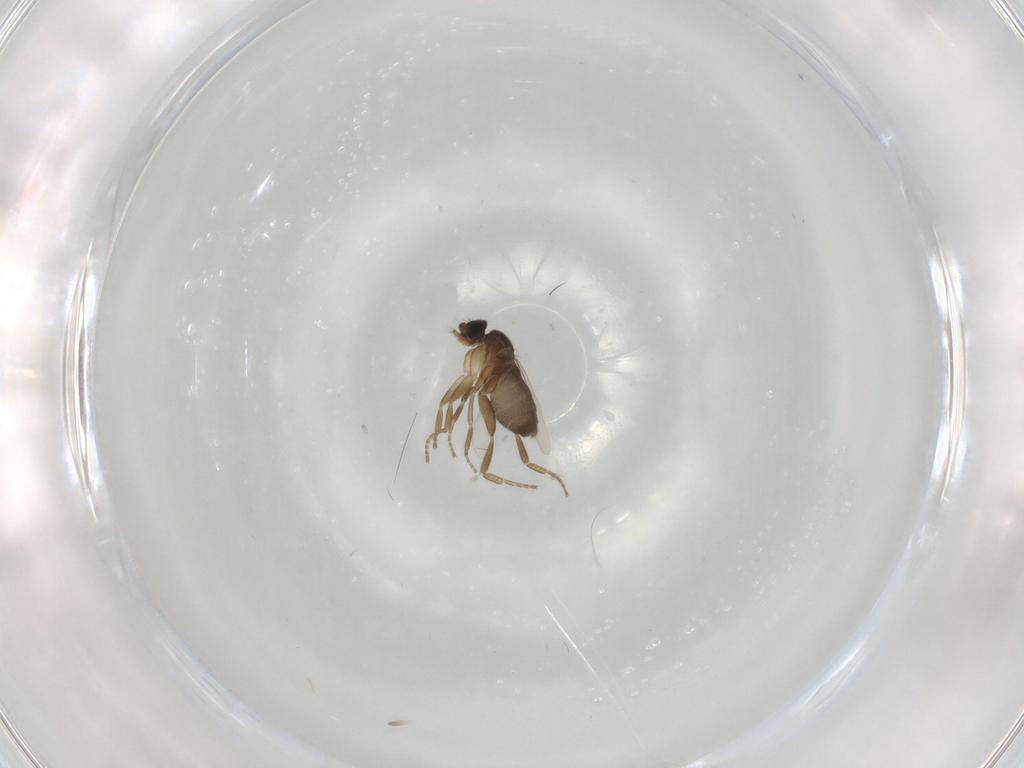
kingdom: Animalia
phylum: Arthropoda
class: Insecta
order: Diptera
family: Phoridae
